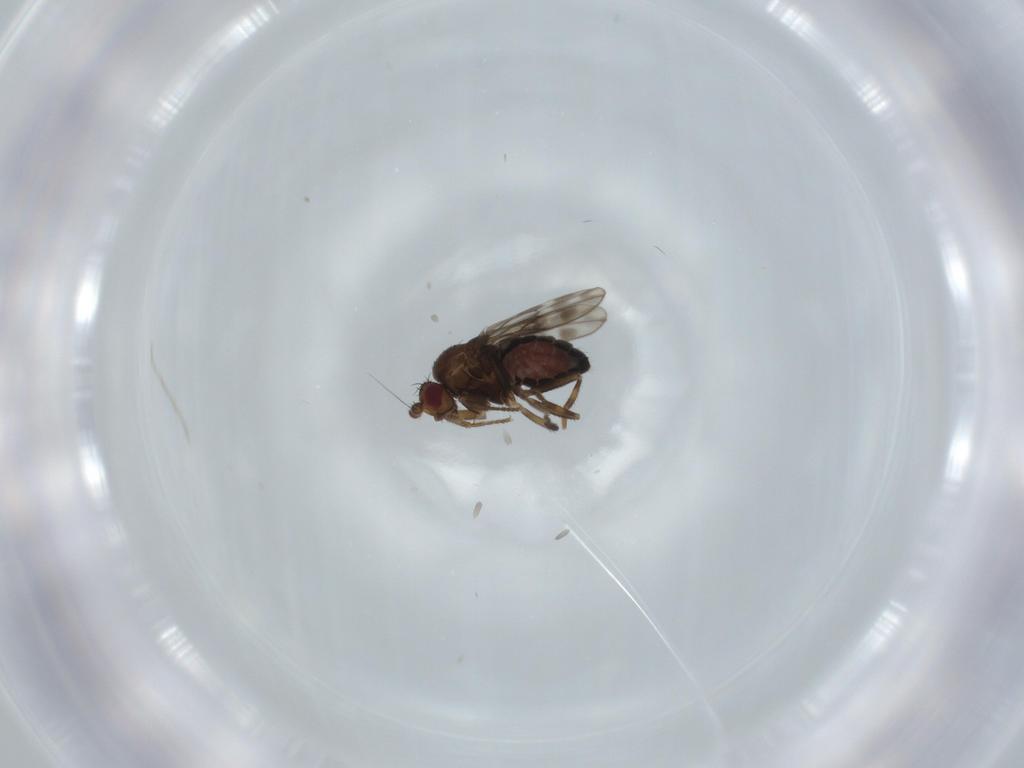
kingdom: Animalia
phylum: Arthropoda
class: Insecta
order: Diptera
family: Sphaeroceridae
